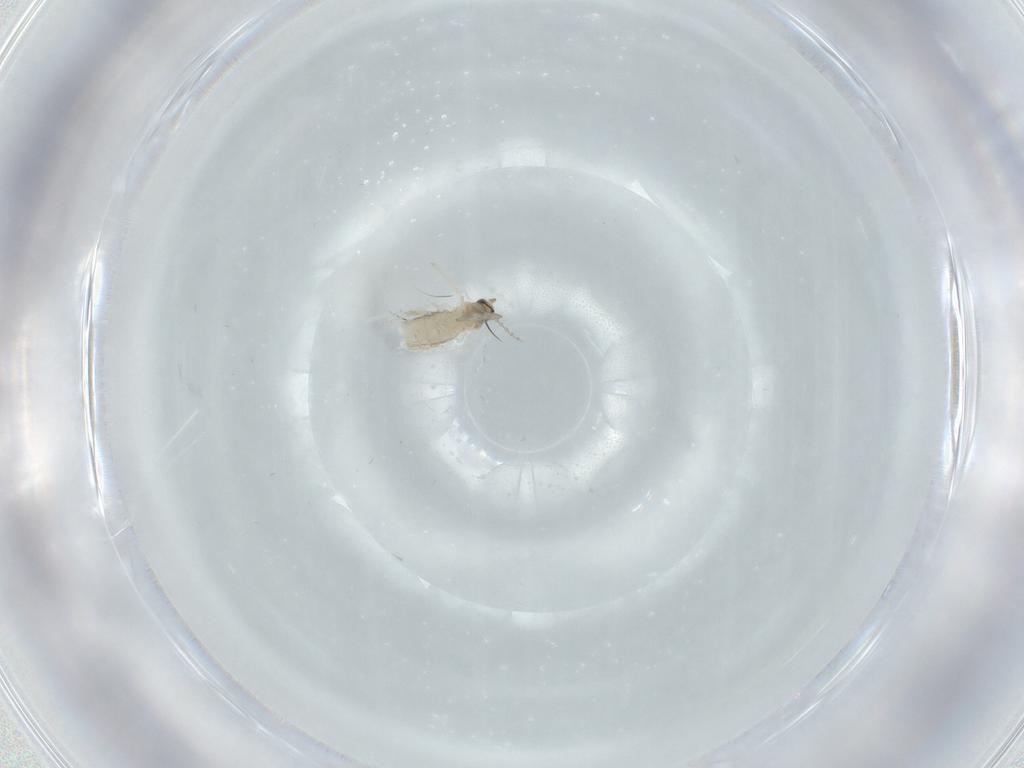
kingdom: Animalia
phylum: Arthropoda
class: Insecta
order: Diptera
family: Cecidomyiidae
